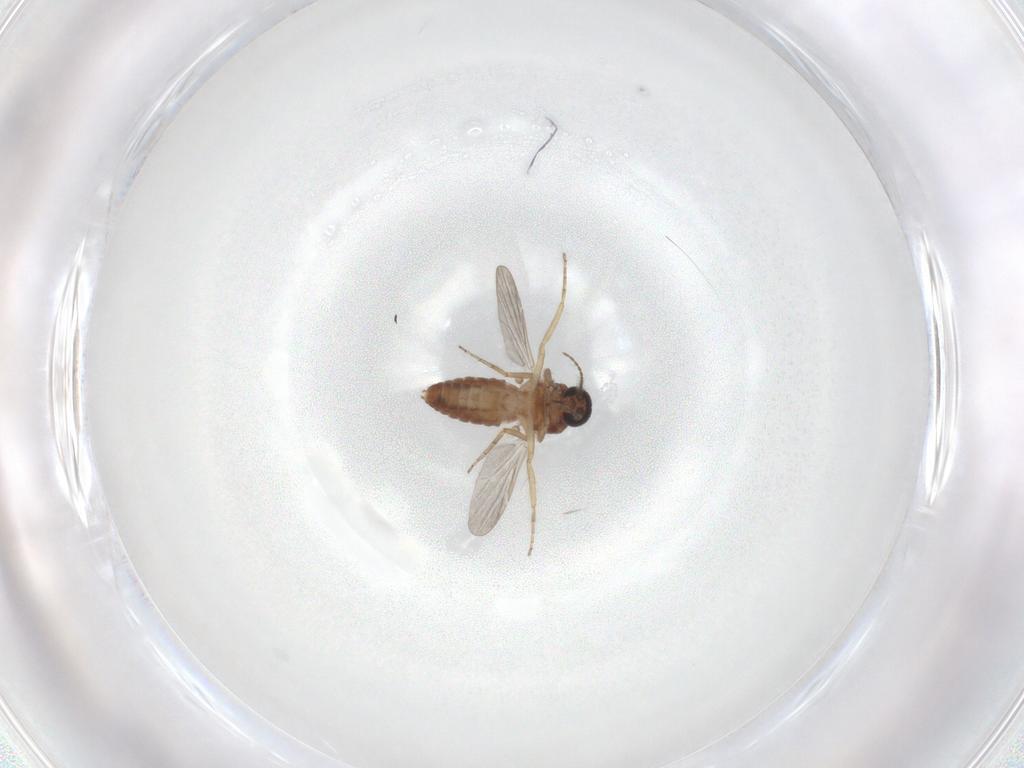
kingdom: Animalia
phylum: Arthropoda
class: Insecta
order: Diptera
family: Ceratopogonidae
